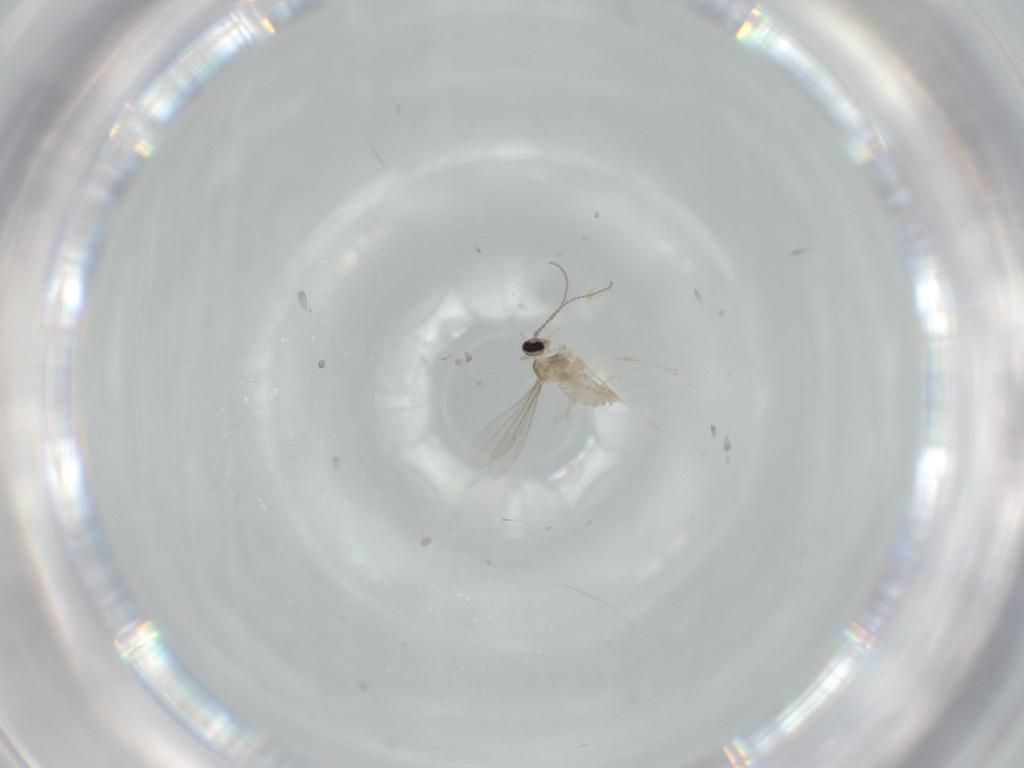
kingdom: Animalia
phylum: Arthropoda
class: Insecta
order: Diptera
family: Cecidomyiidae
